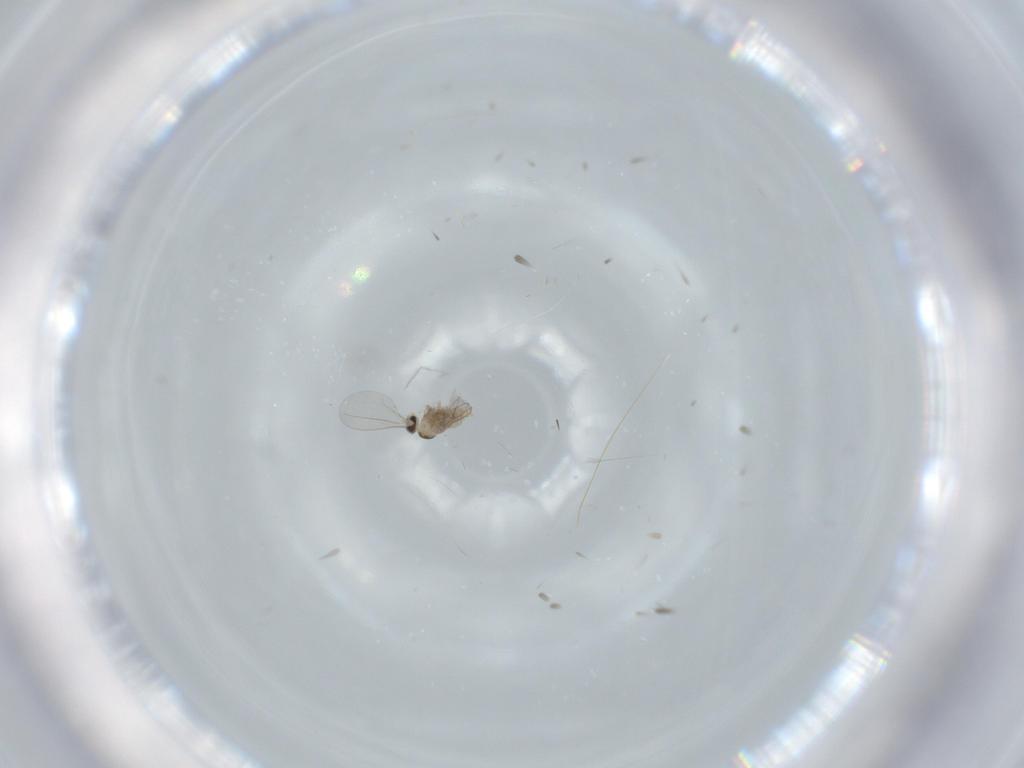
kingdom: Animalia
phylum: Arthropoda
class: Insecta
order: Diptera
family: Cecidomyiidae
